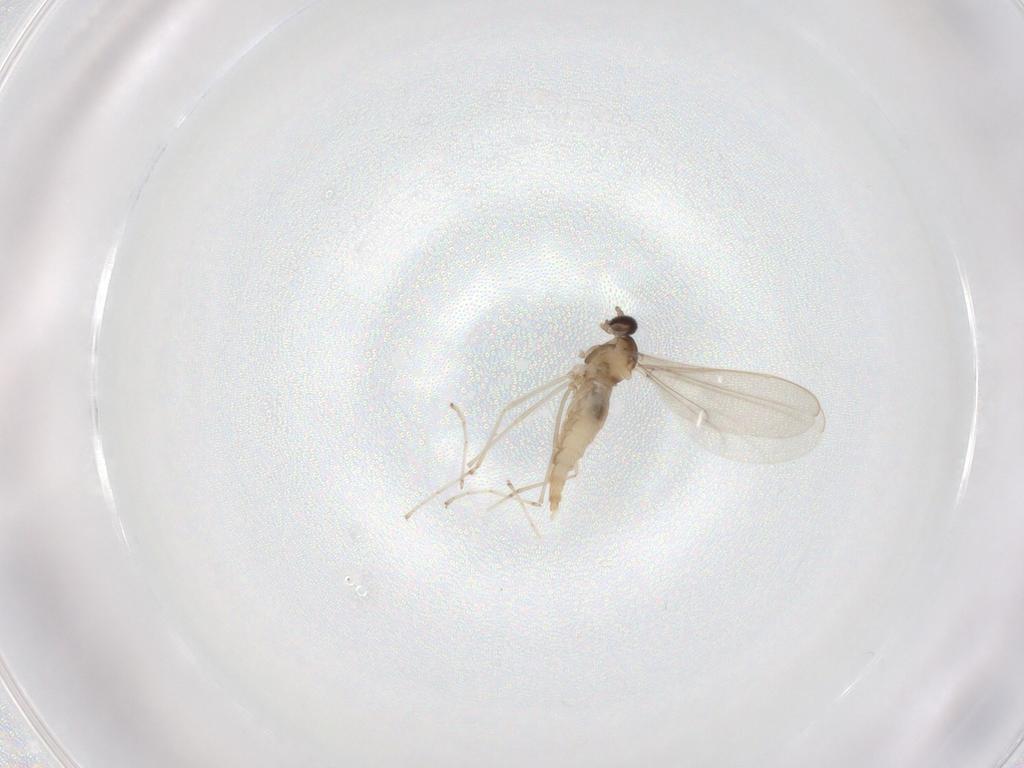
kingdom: Animalia
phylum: Arthropoda
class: Insecta
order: Diptera
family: Cecidomyiidae
